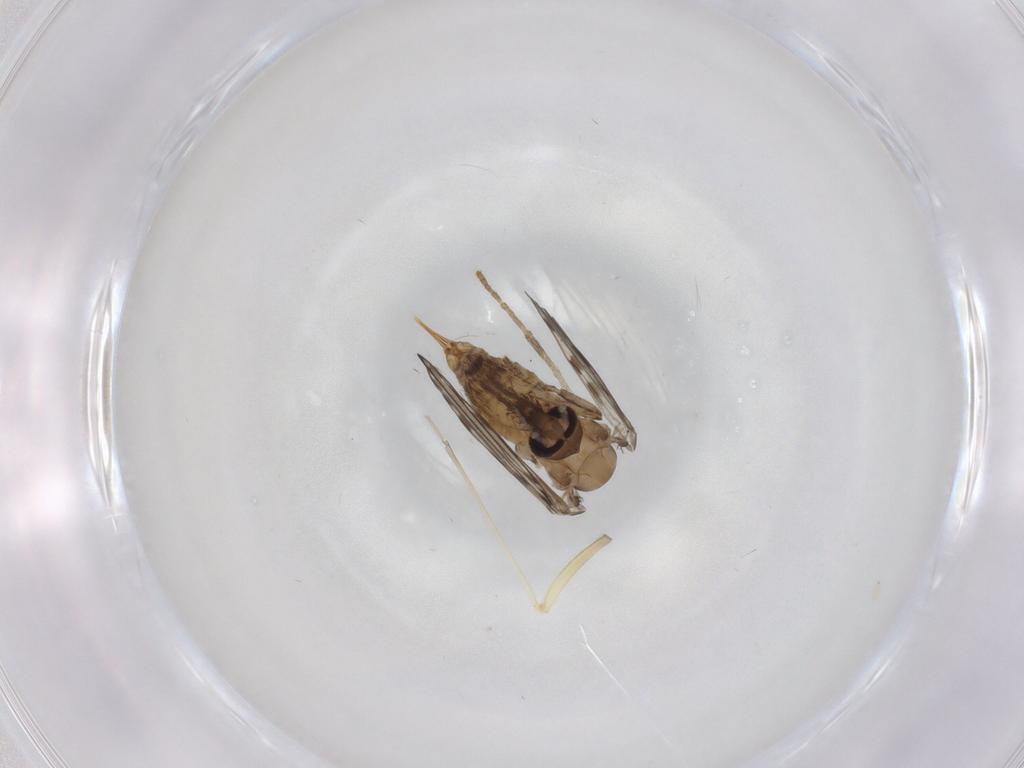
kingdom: Animalia
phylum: Arthropoda
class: Insecta
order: Diptera
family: Psychodidae
